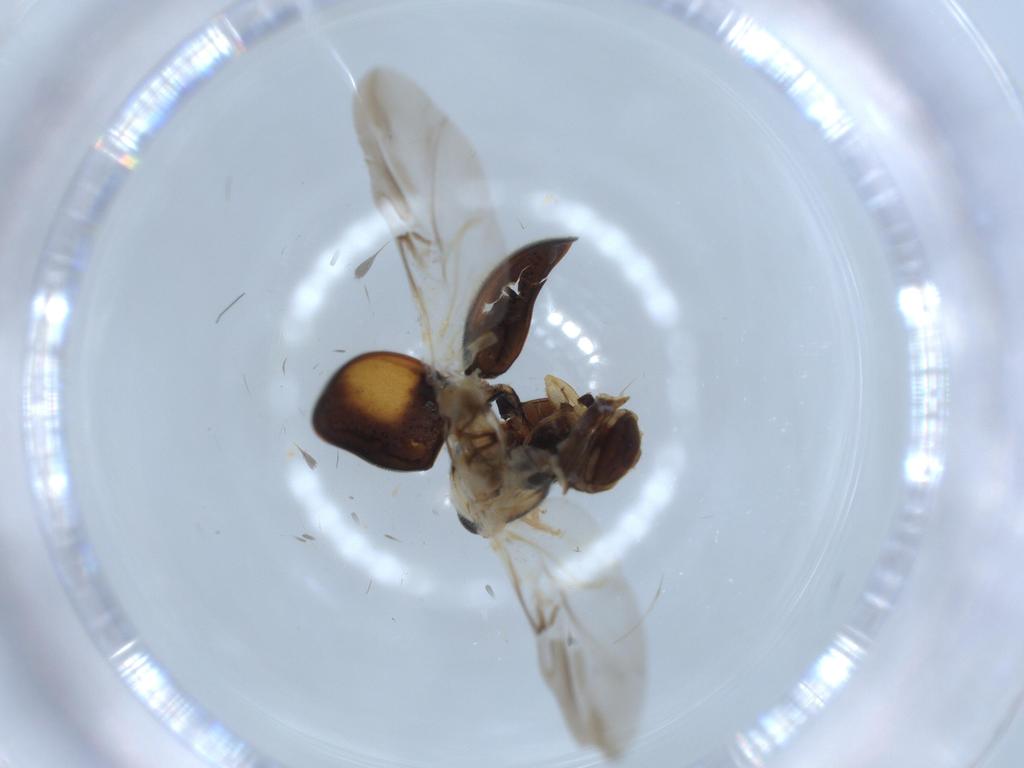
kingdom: Animalia
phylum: Arthropoda
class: Insecta
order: Coleoptera
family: Coccinellidae
